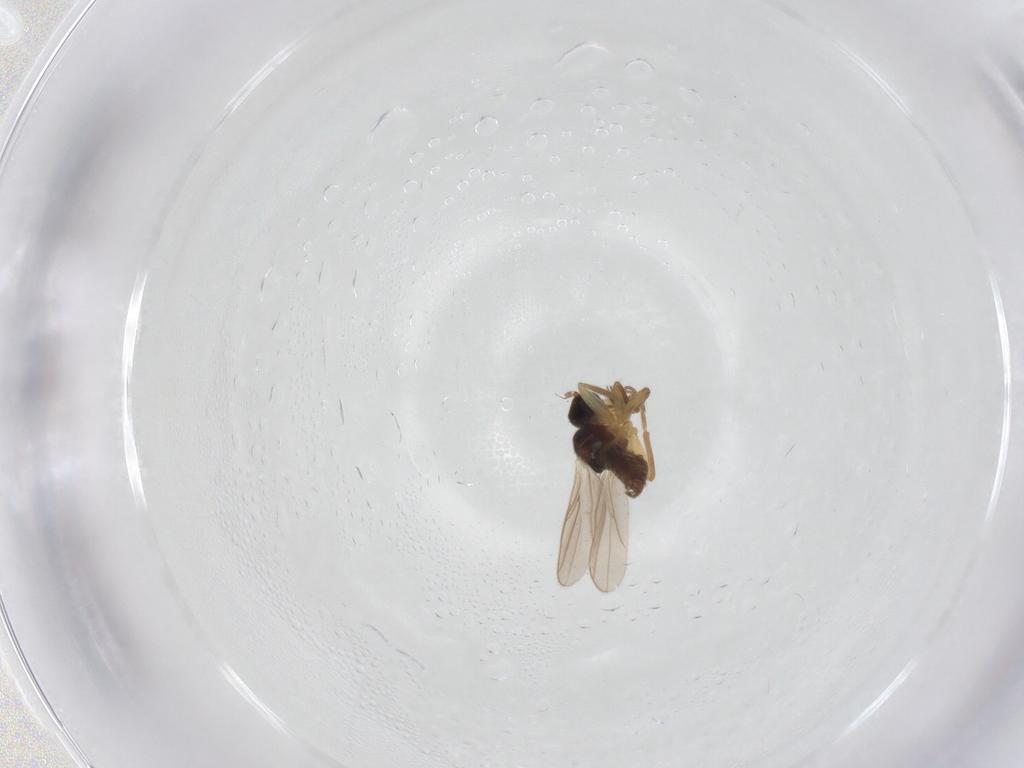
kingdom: Animalia
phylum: Arthropoda
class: Insecta
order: Diptera
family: Hybotidae
